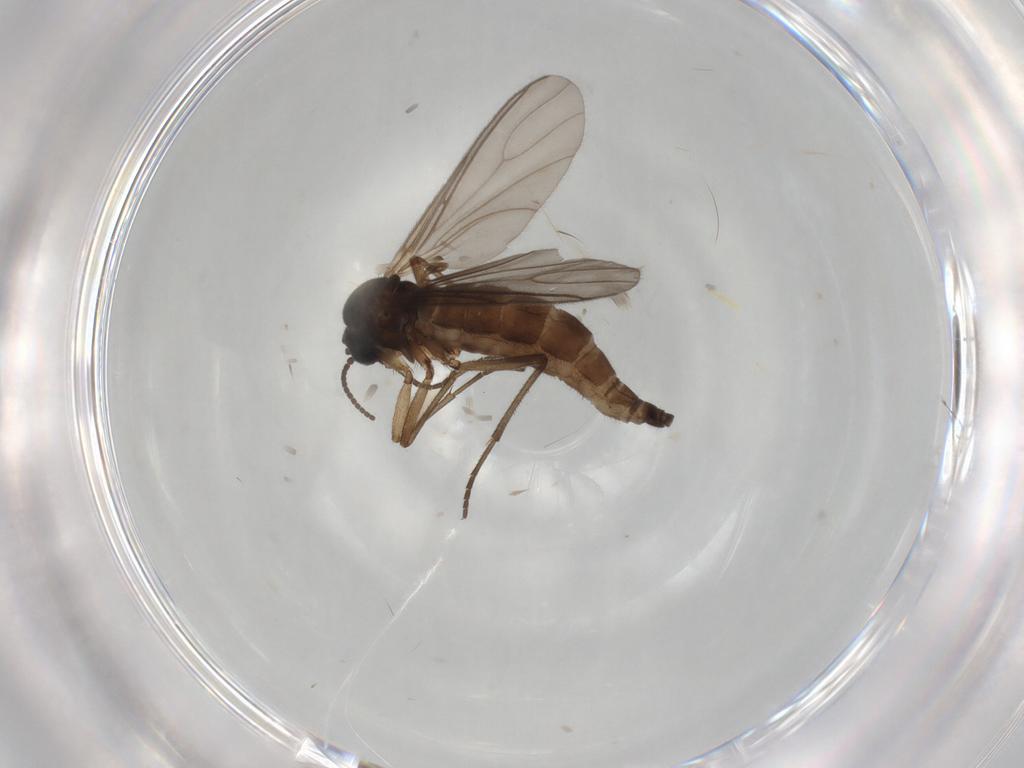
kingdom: Animalia
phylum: Arthropoda
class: Insecta
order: Diptera
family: Sciaridae
